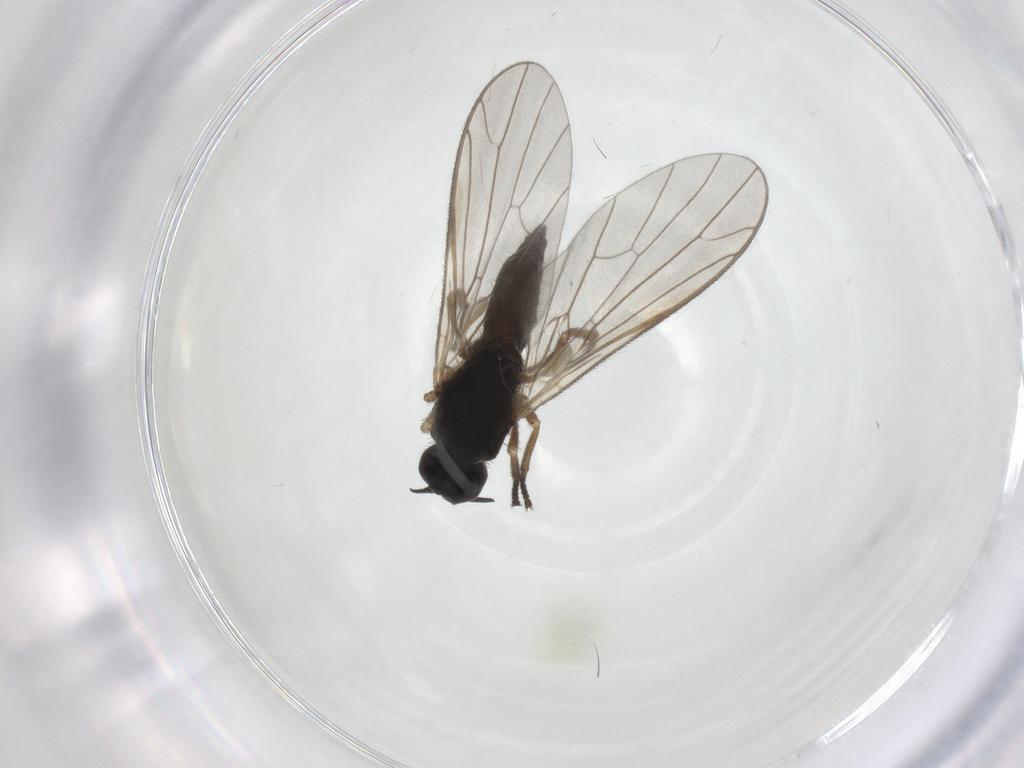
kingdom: Animalia
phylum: Arthropoda
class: Insecta
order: Diptera
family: Empididae
